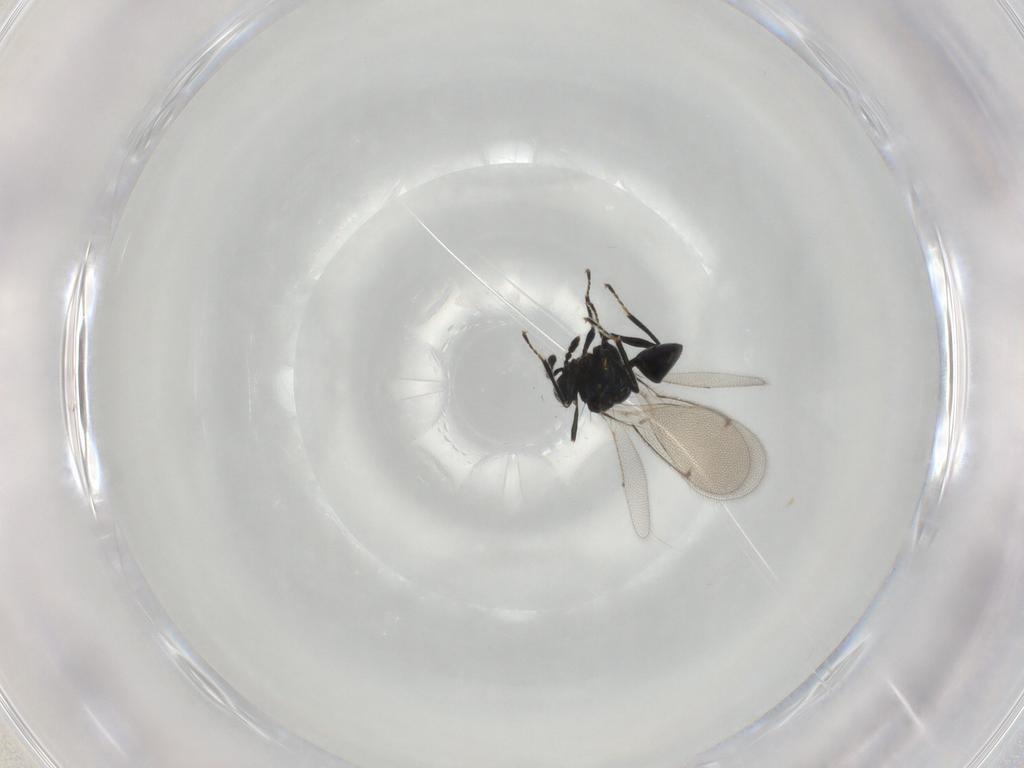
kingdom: Animalia
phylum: Arthropoda
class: Insecta
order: Hymenoptera
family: Eulophidae
